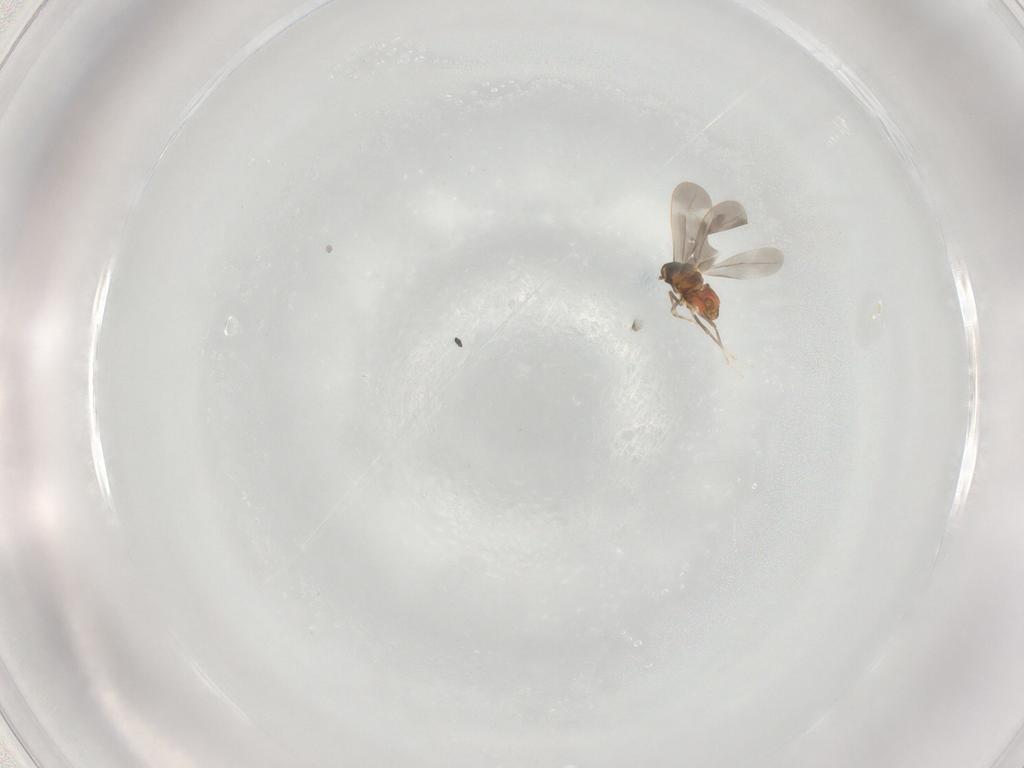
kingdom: Animalia
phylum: Arthropoda
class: Insecta
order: Hemiptera
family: Aleyrodidae
